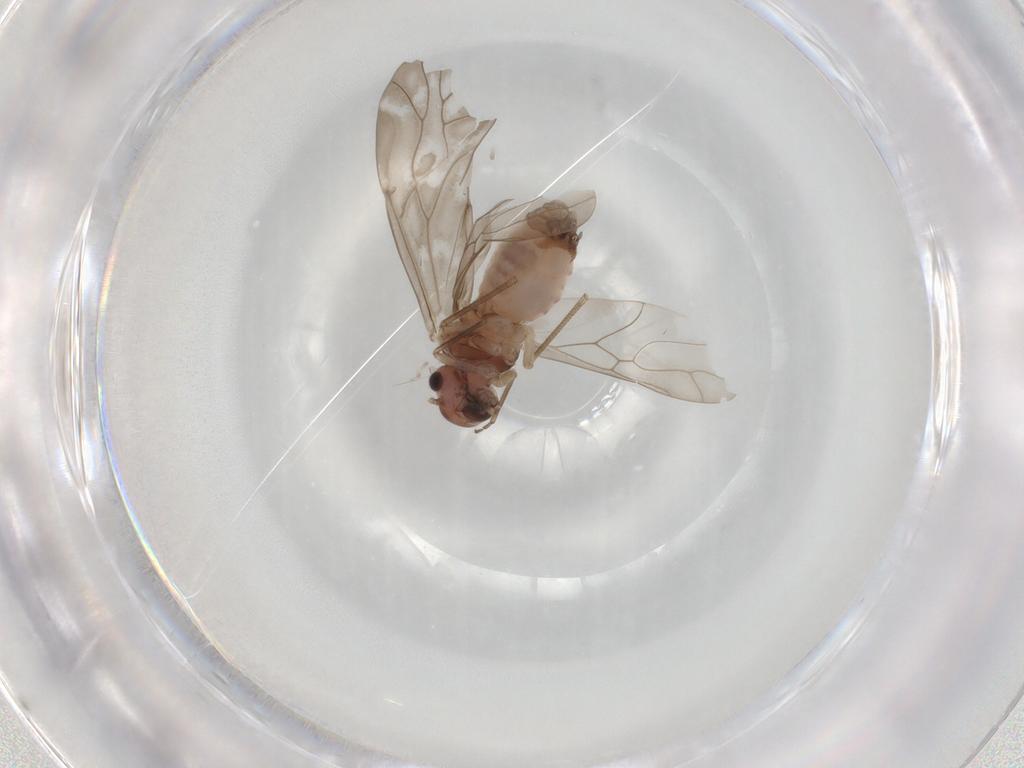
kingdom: Animalia
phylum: Arthropoda
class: Insecta
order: Psocodea
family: Peripsocidae
